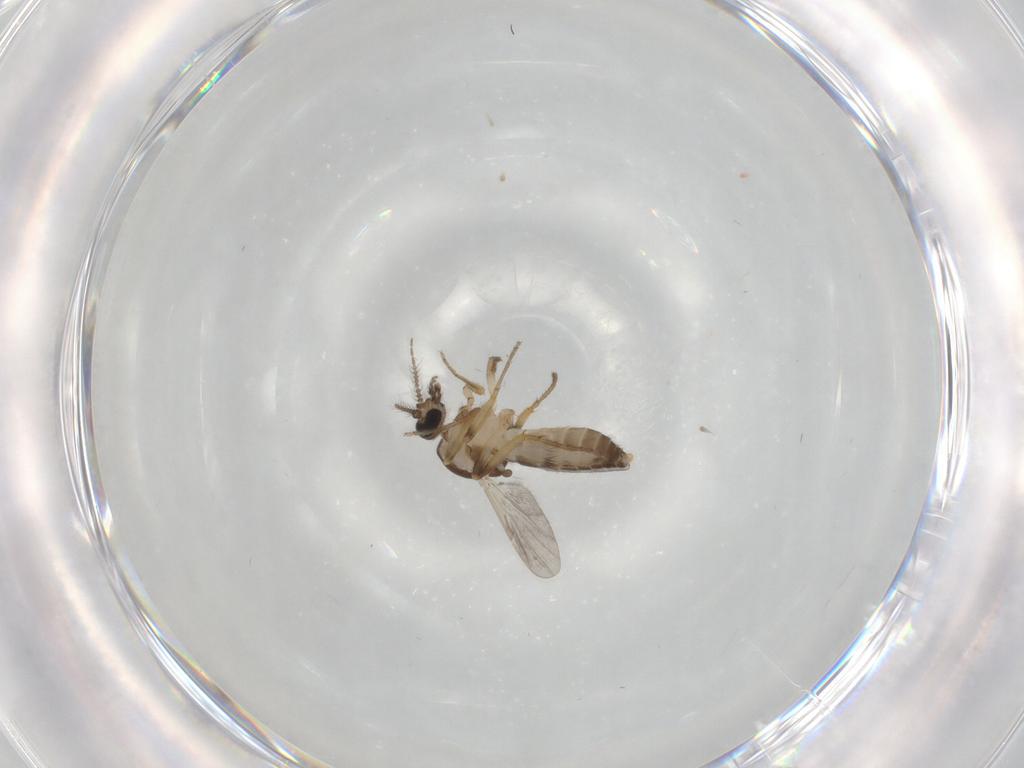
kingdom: Animalia
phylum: Arthropoda
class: Insecta
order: Diptera
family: Ceratopogonidae
